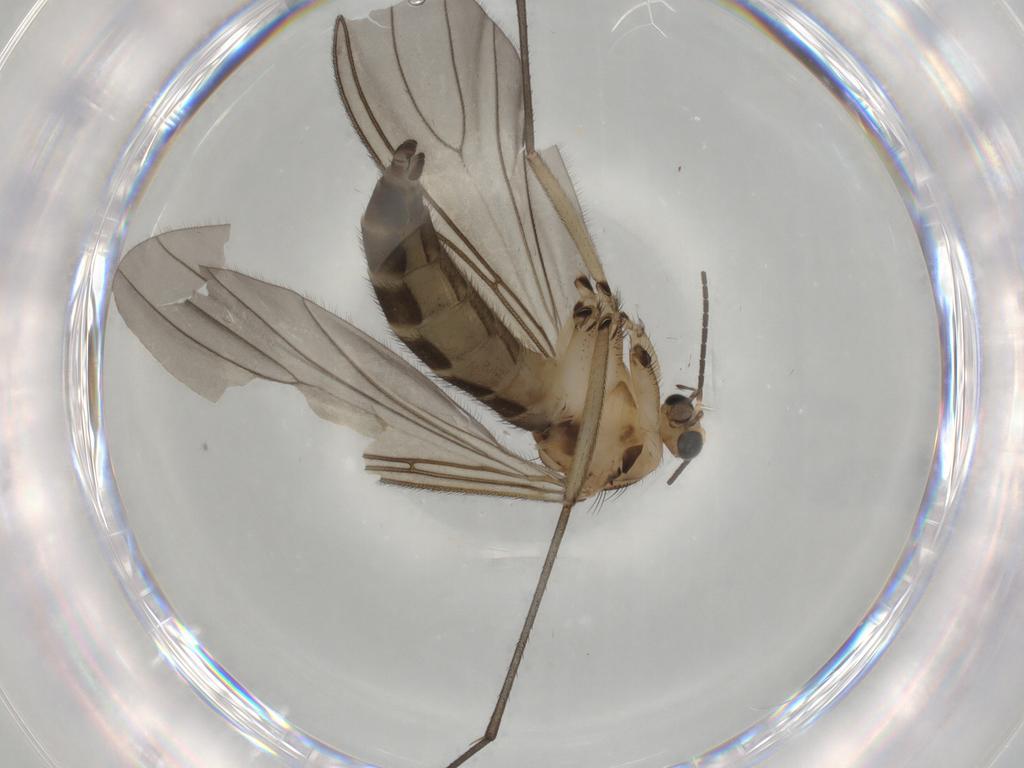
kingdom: Animalia
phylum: Arthropoda
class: Insecta
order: Diptera
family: Sciaridae
